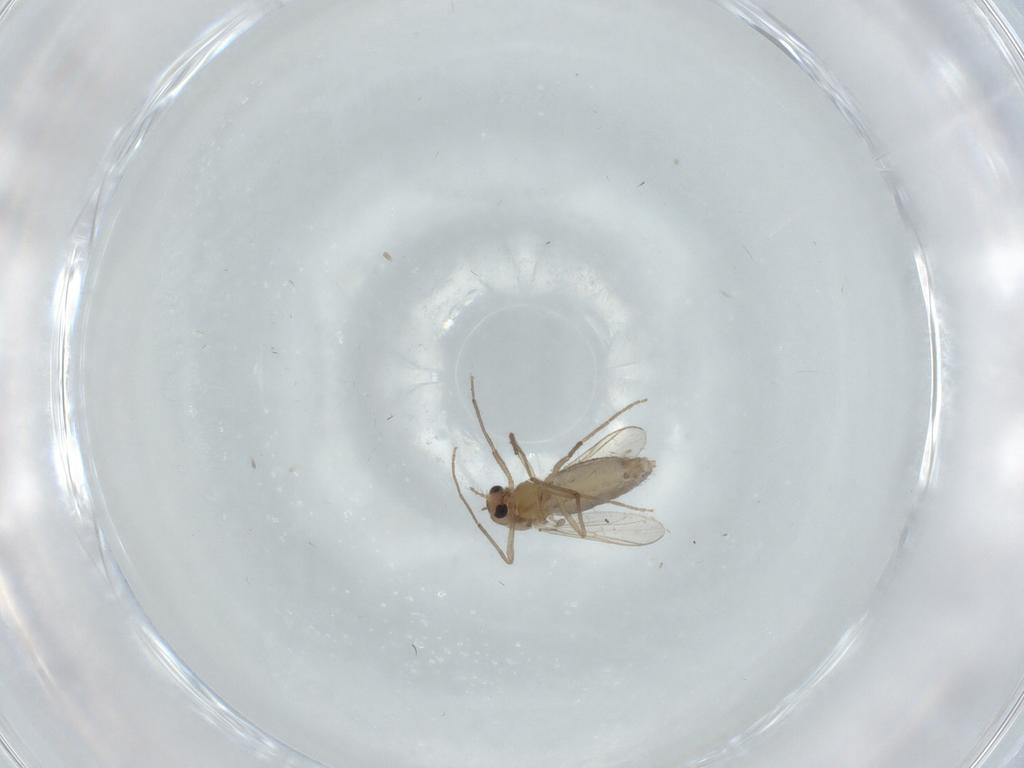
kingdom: Animalia
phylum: Arthropoda
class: Insecta
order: Diptera
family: Chironomidae
